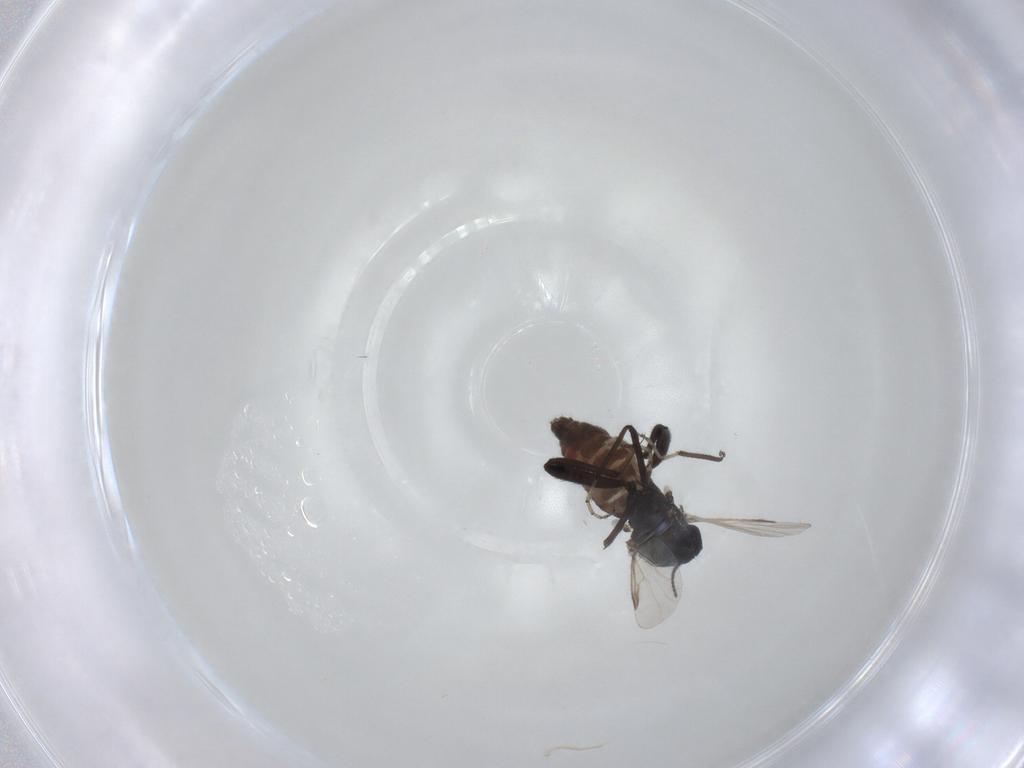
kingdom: Animalia
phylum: Arthropoda
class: Insecta
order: Diptera
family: Ceratopogonidae
